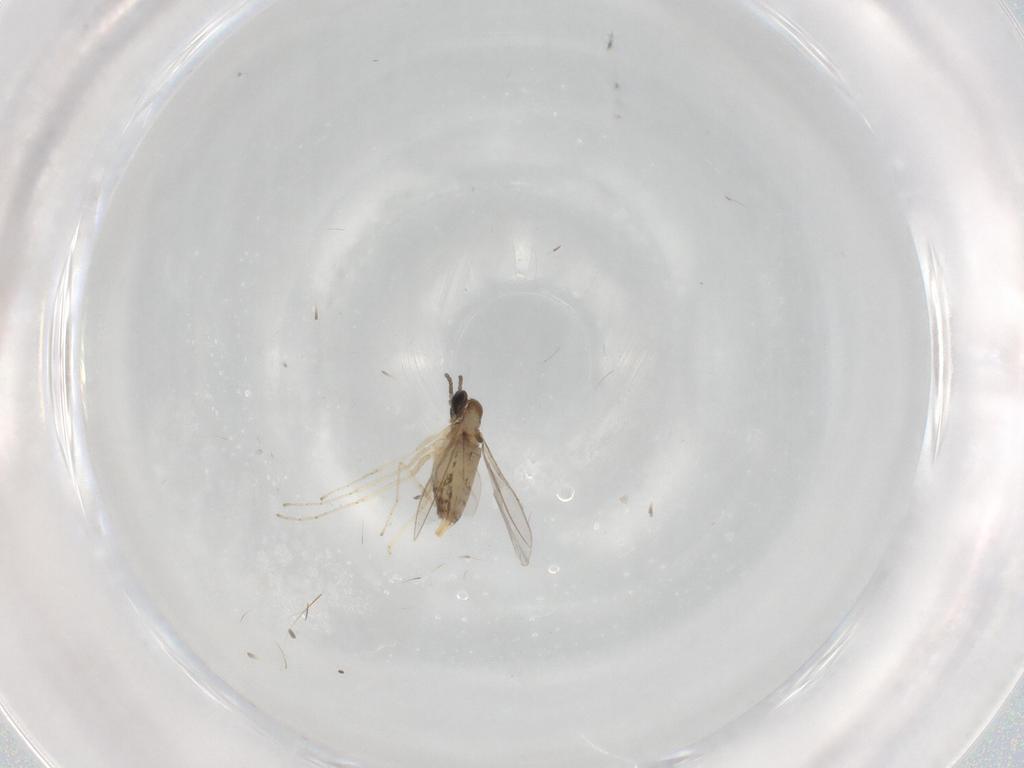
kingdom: Animalia
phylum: Arthropoda
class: Insecta
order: Diptera
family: Cecidomyiidae
